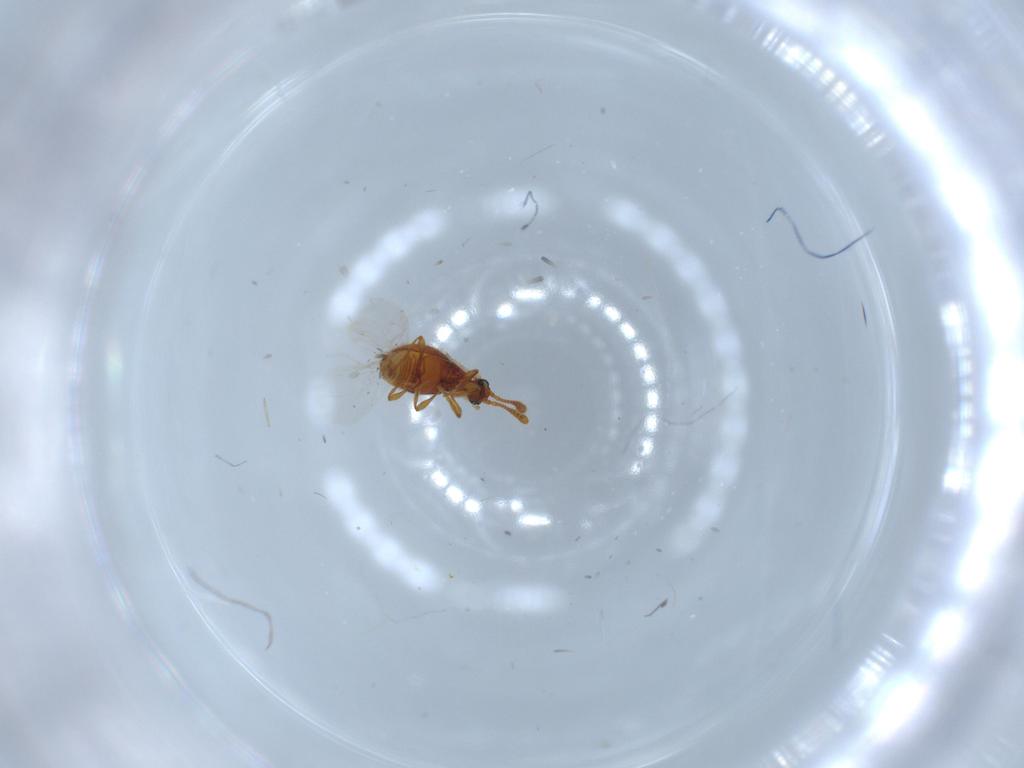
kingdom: Animalia
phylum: Arthropoda
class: Insecta
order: Coleoptera
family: Staphylinidae
